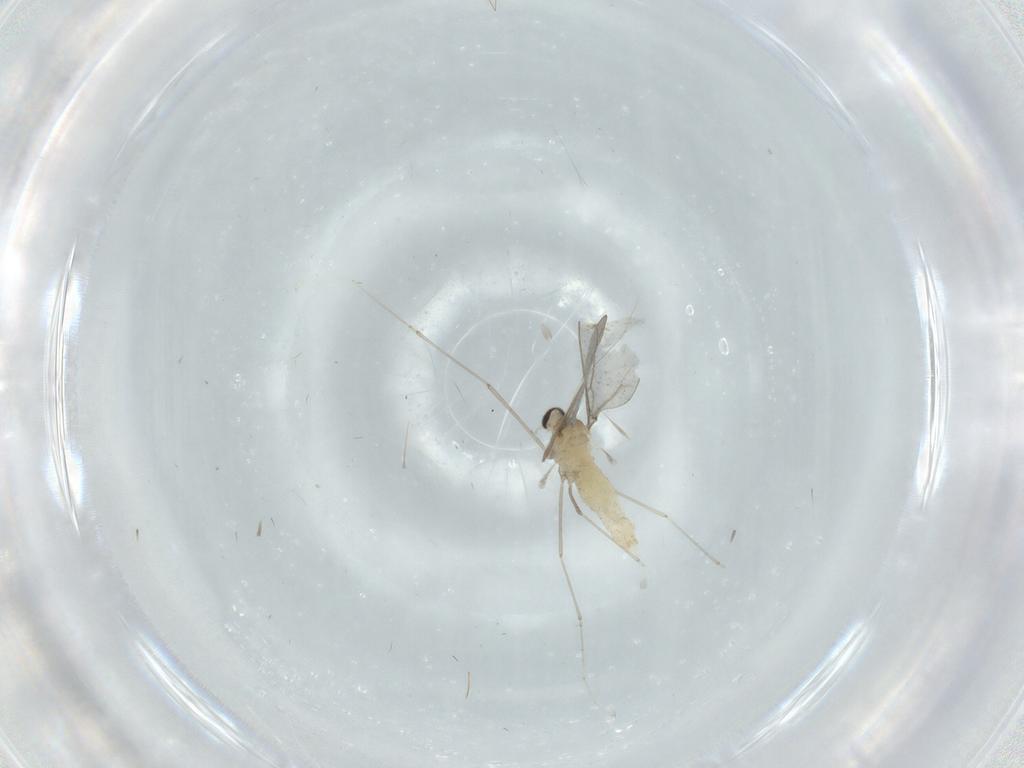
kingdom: Animalia
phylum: Arthropoda
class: Insecta
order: Diptera
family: Cecidomyiidae
